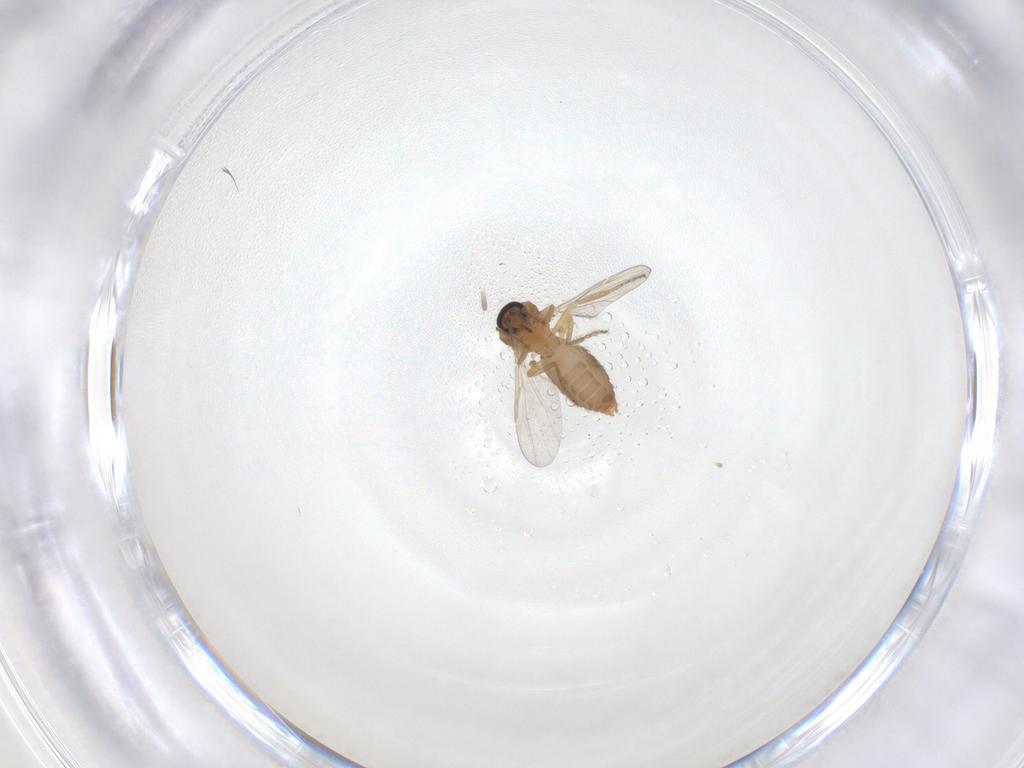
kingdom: Animalia
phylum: Arthropoda
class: Insecta
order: Diptera
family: Ceratopogonidae
